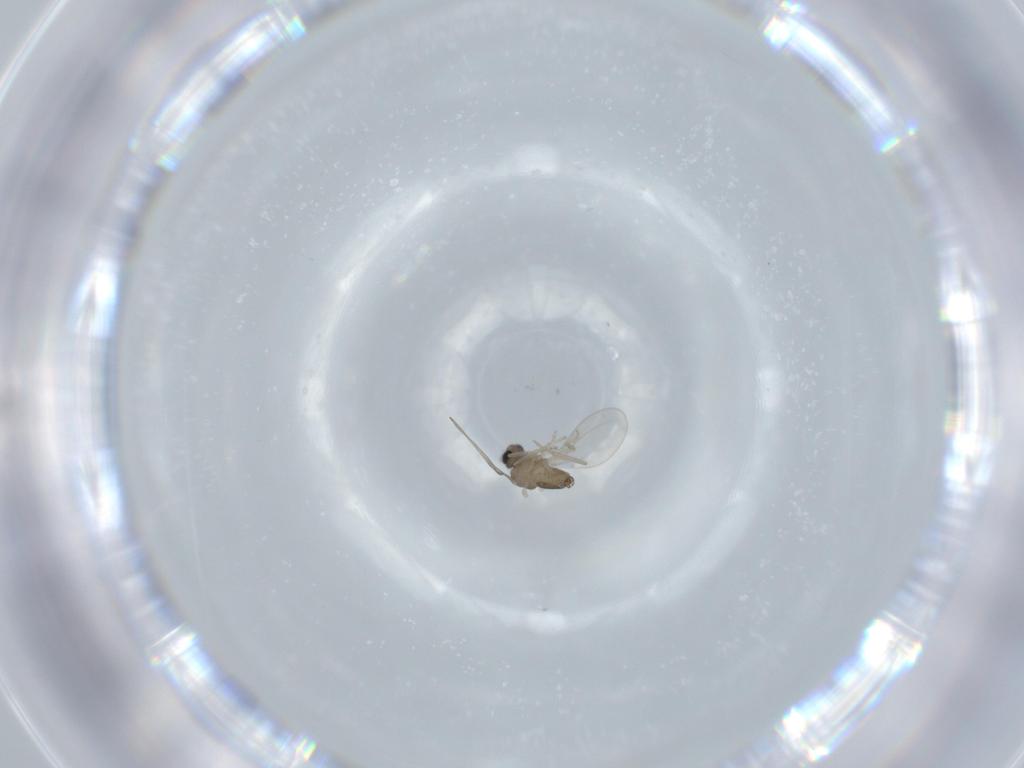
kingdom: Animalia
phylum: Arthropoda
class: Insecta
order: Diptera
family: Cecidomyiidae
